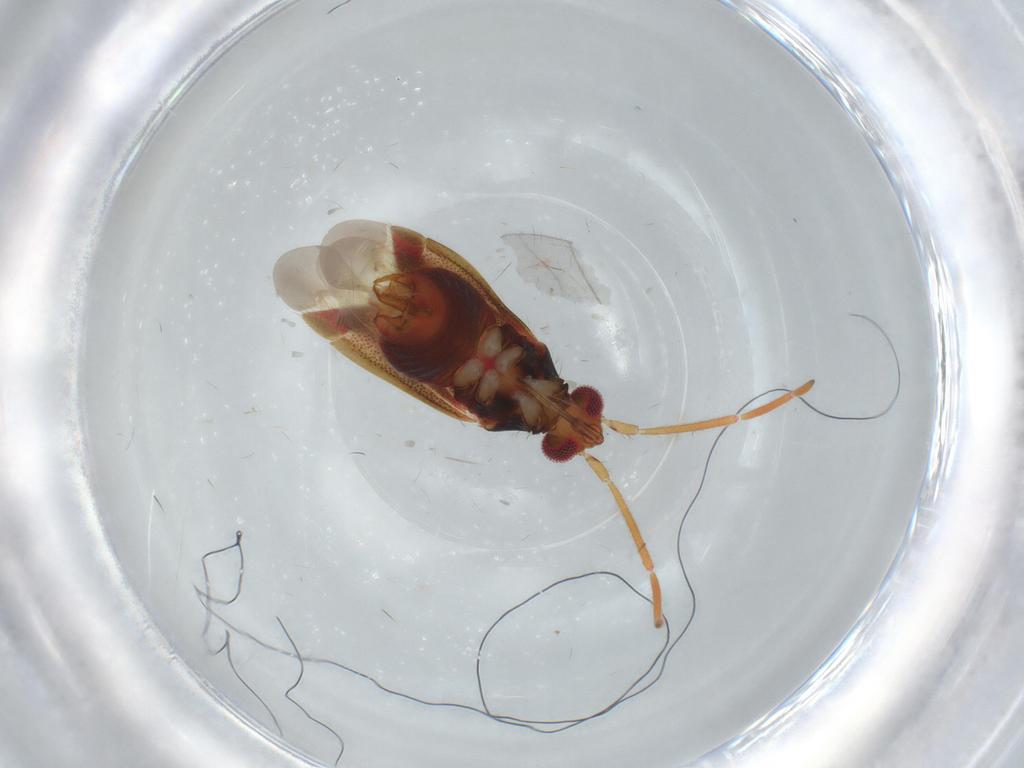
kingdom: Animalia
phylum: Arthropoda
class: Insecta
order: Hemiptera
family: Miridae
